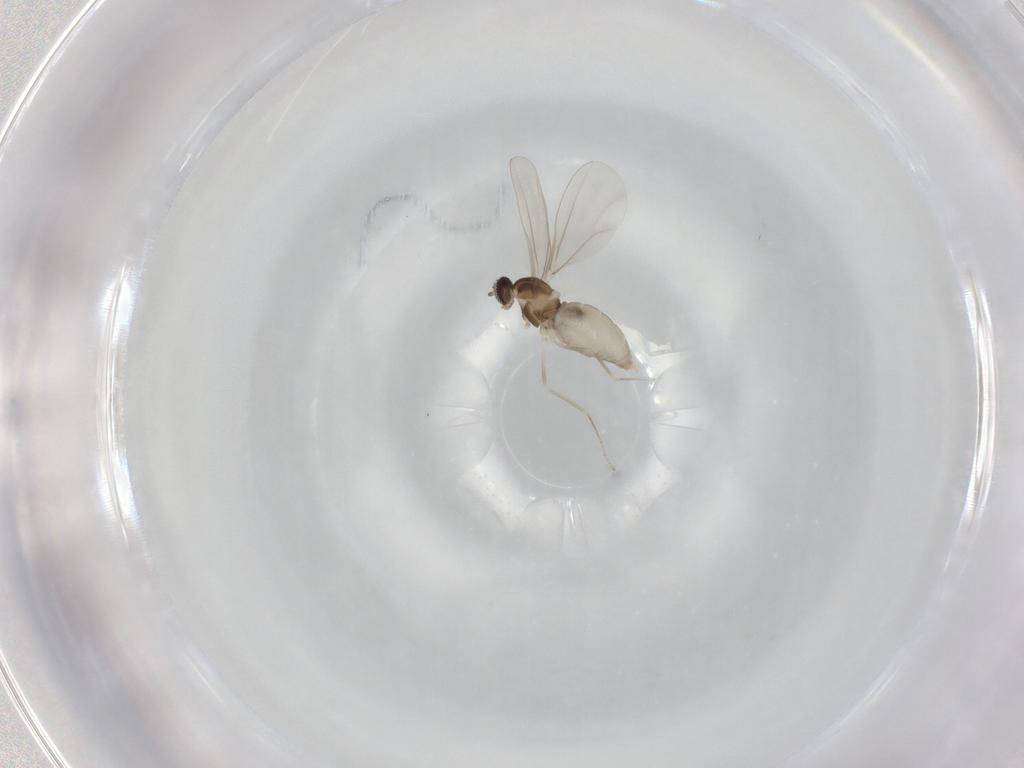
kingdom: Animalia
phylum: Arthropoda
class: Insecta
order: Diptera
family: Cecidomyiidae
